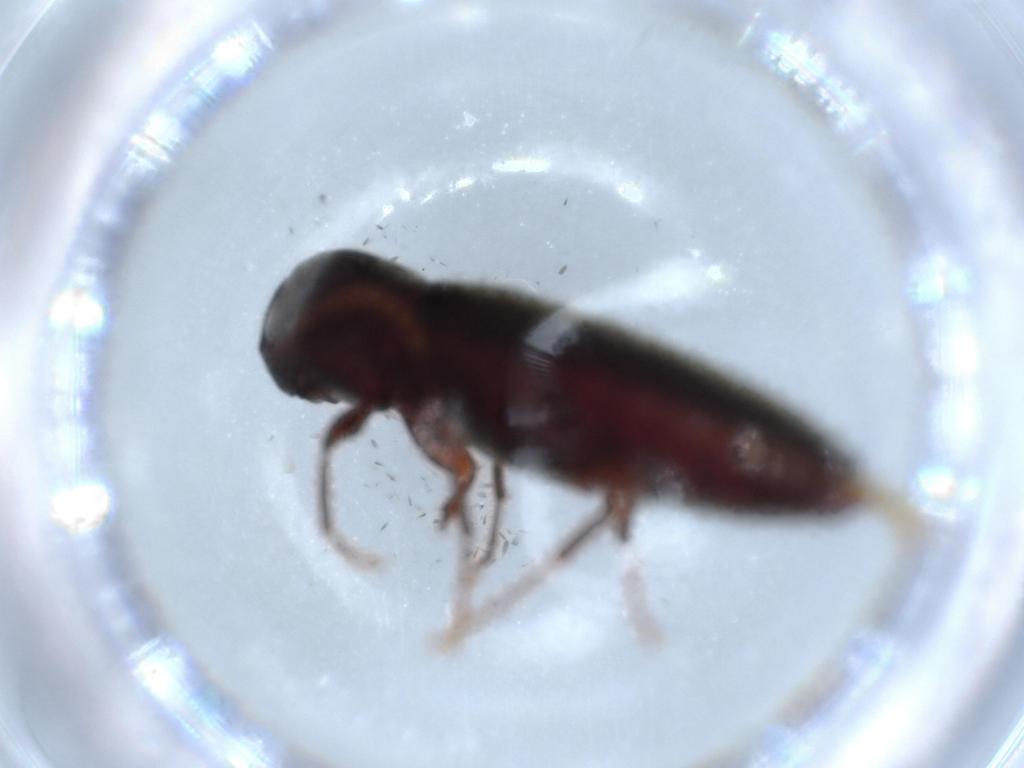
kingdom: Animalia
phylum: Arthropoda
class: Insecta
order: Coleoptera
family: Eucnemidae
